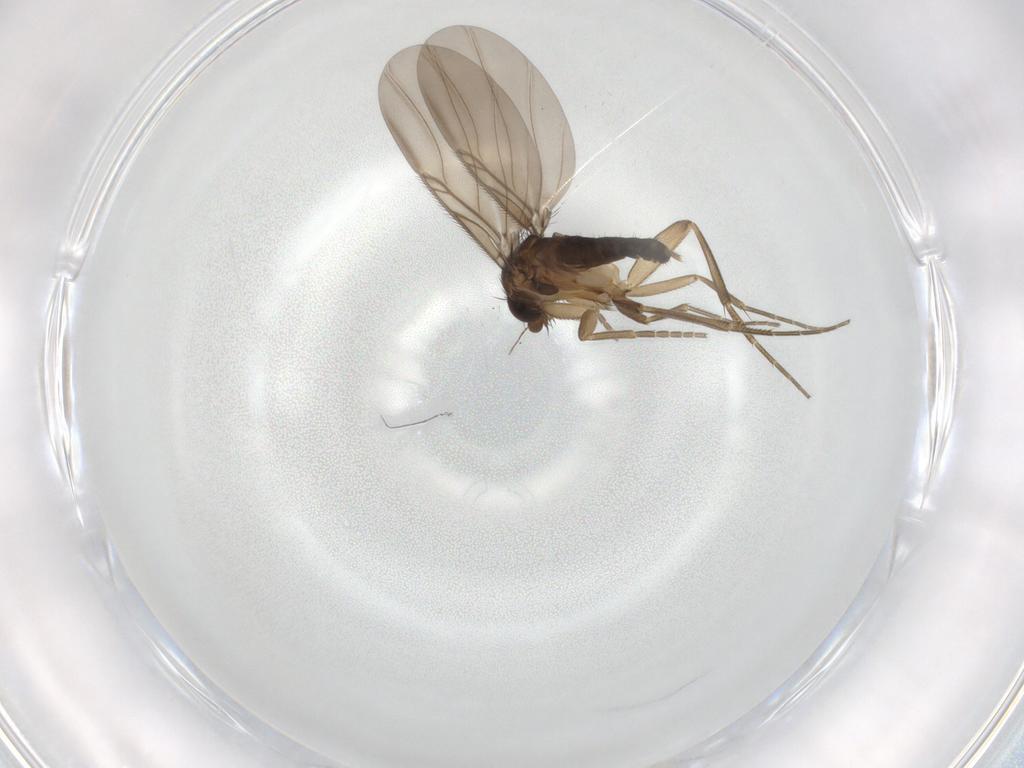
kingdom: Animalia
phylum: Arthropoda
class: Insecta
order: Diptera
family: Phoridae
